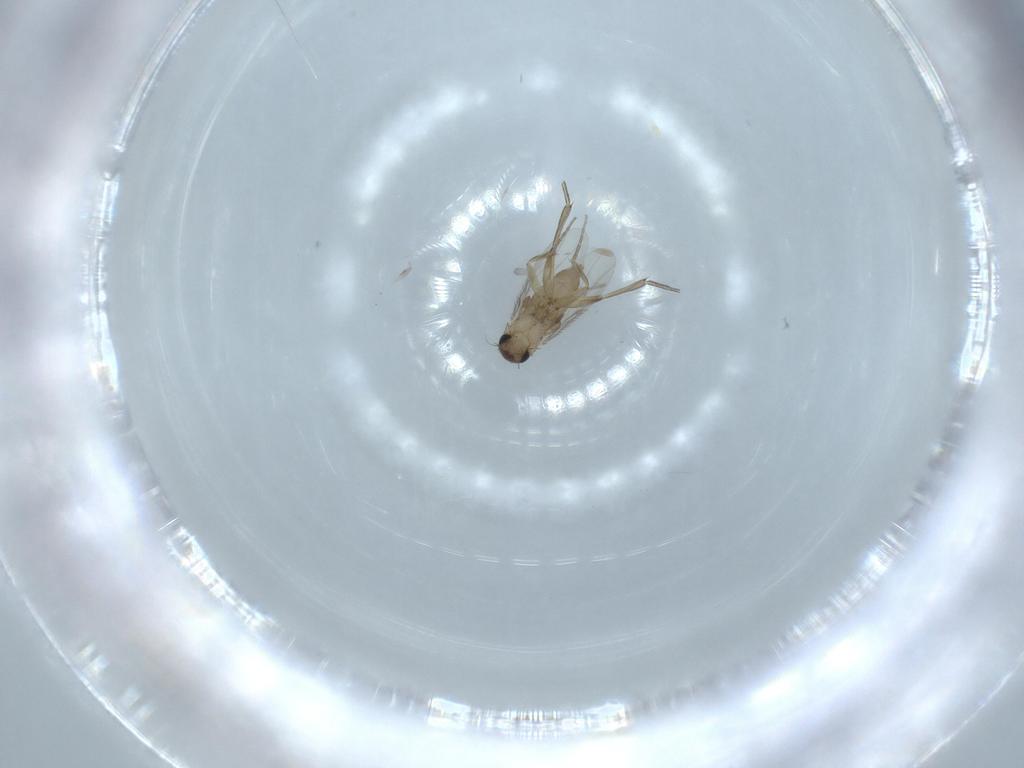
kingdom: Animalia
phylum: Arthropoda
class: Insecta
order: Diptera
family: Phoridae
